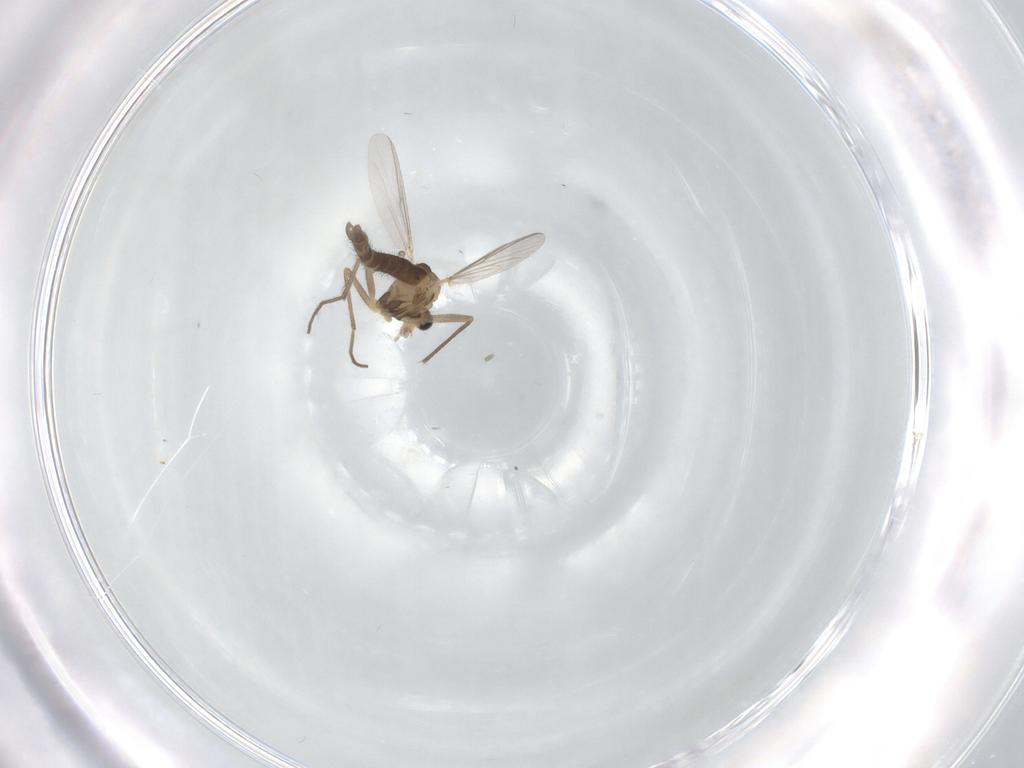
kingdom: Animalia
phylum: Arthropoda
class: Insecta
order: Diptera
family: Chironomidae
